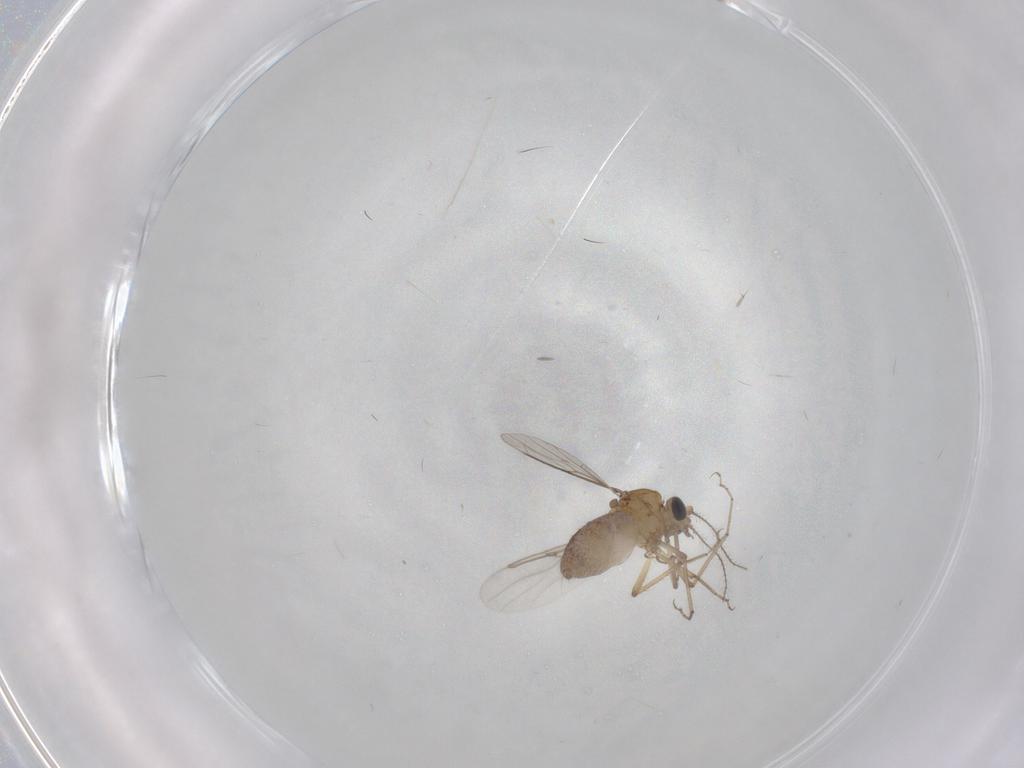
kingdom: Animalia
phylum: Arthropoda
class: Insecta
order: Diptera
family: Ceratopogonidae
